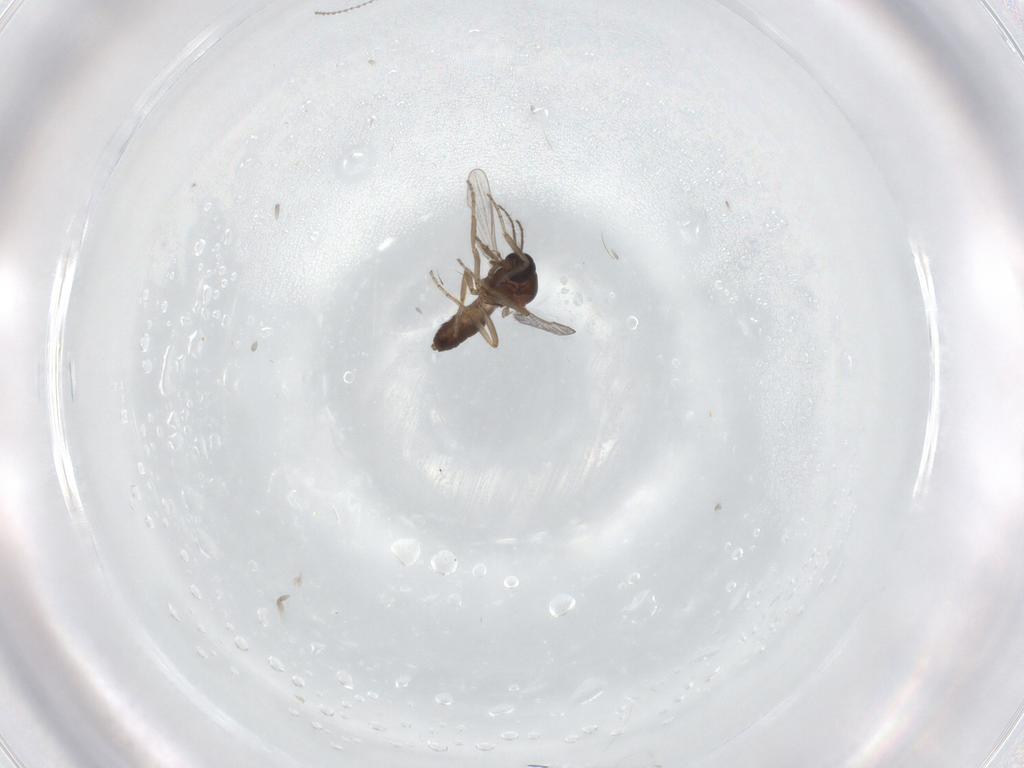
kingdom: Animalia
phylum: Arthropoda
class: Insecta
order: Diptera
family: Ceratopogonidae
